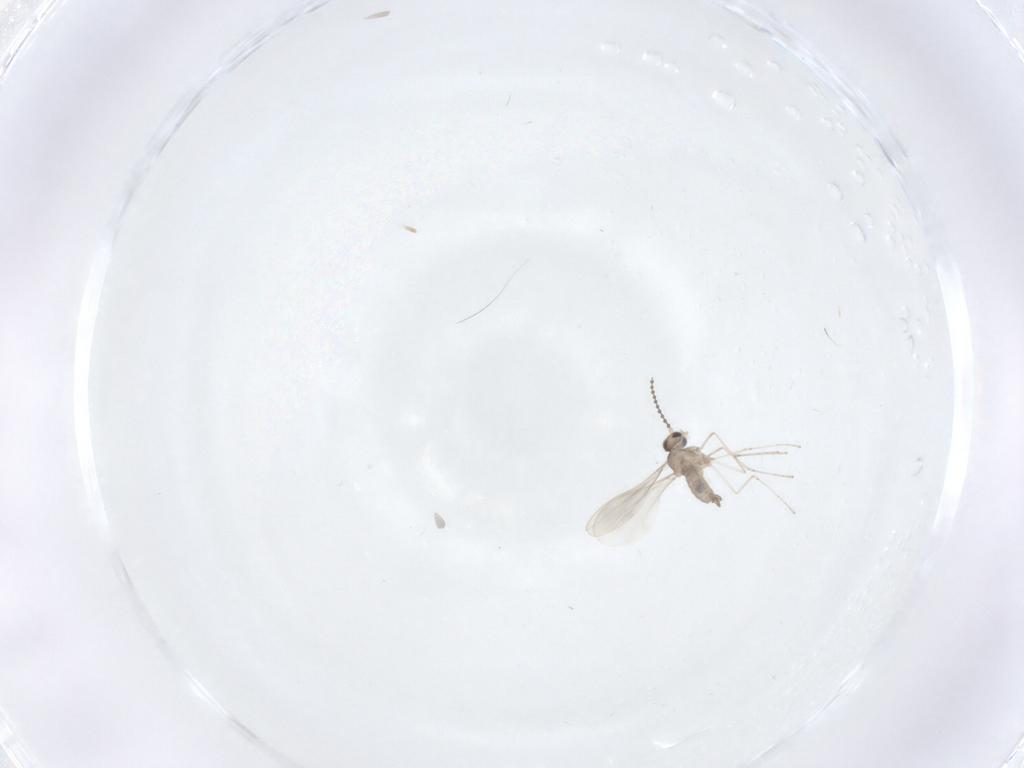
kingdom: Animalia
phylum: Arthropoda
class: Insecta
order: Diptera
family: Cecidomyiidae
